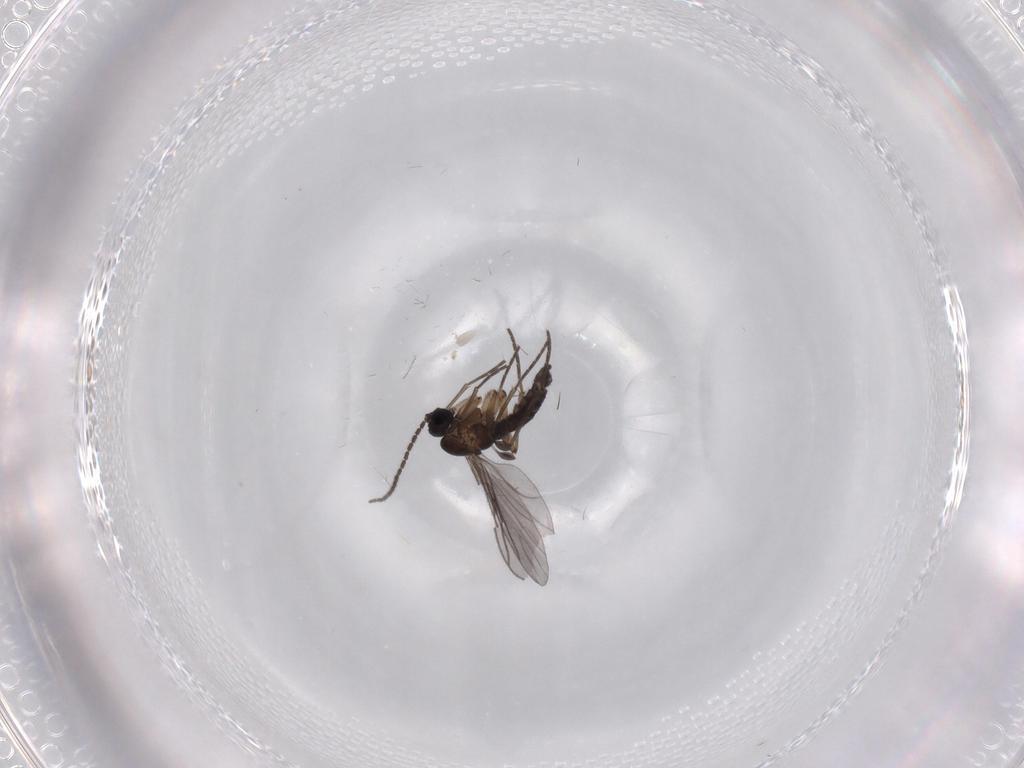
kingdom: Animalia
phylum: Arthropoda
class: Insecta
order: Diptera
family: Sciaridae
